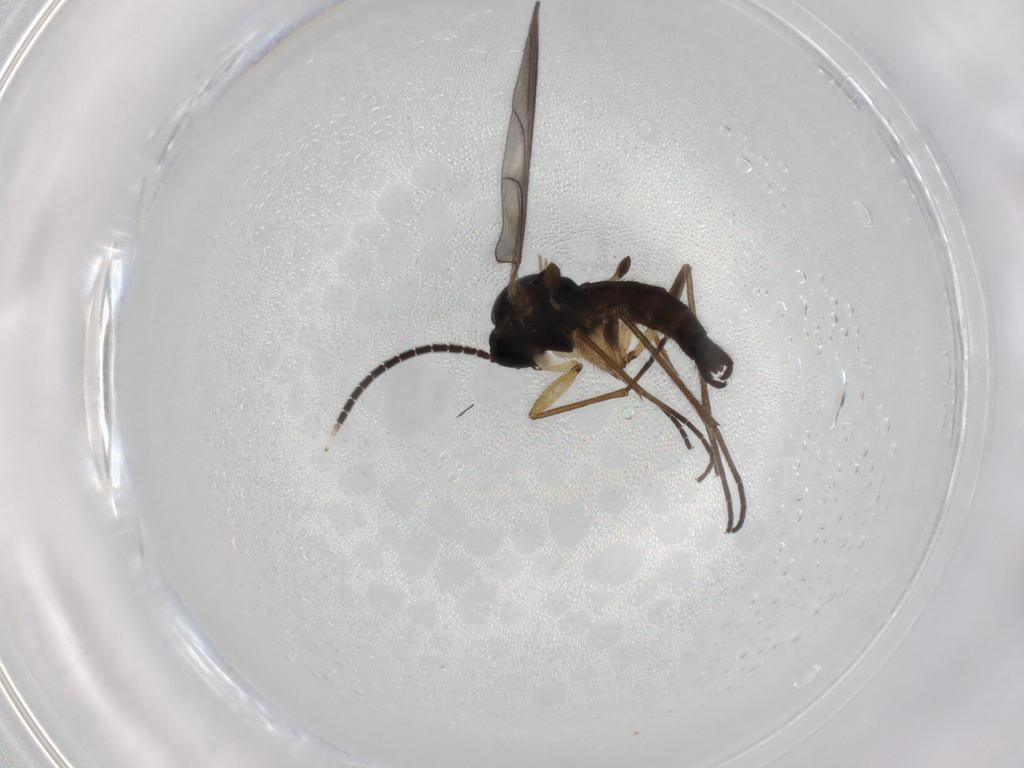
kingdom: Animalia
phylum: Arthropoda
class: Insecta
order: Diptera
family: Sciaridae
